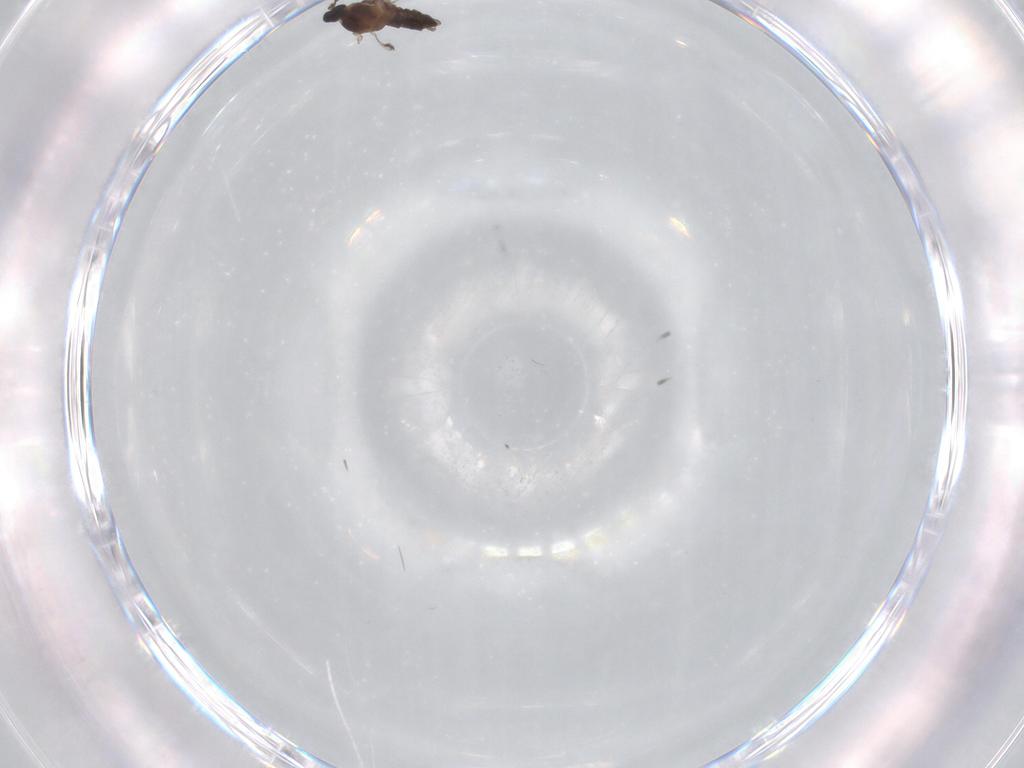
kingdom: Animalia
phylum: Arthropoda
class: Insecta
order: Diptera
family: Cecidomyiidae
